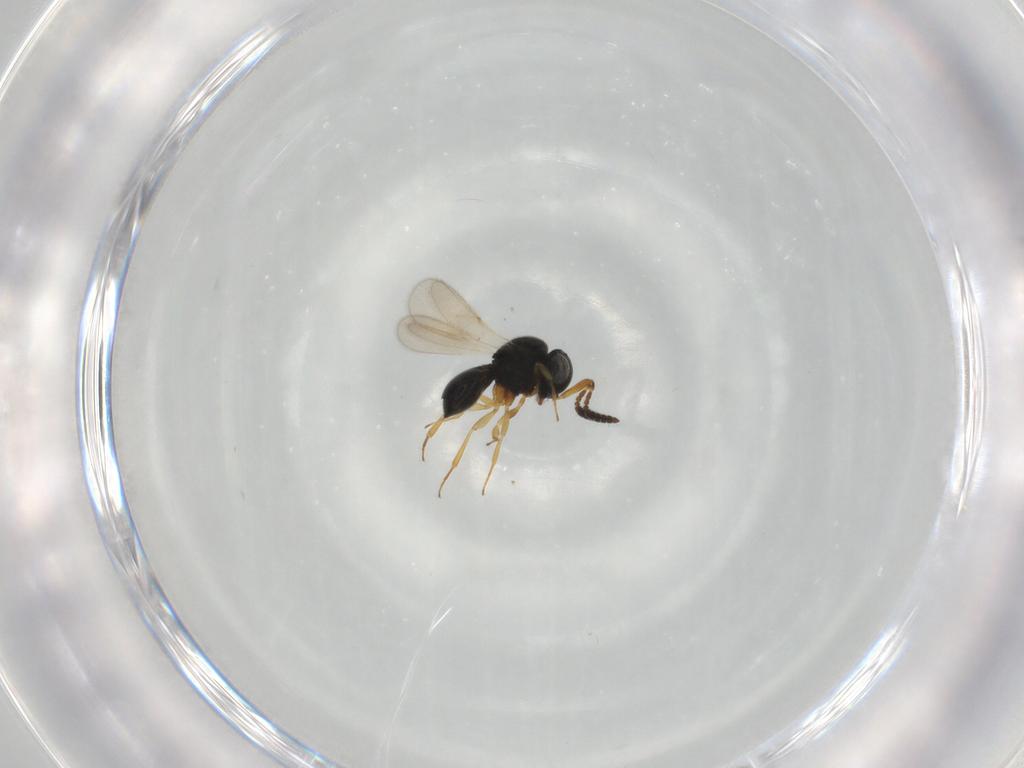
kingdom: Animalia
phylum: Arthropoda
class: Insecta
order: Hymenoptera
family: Scelionidae
